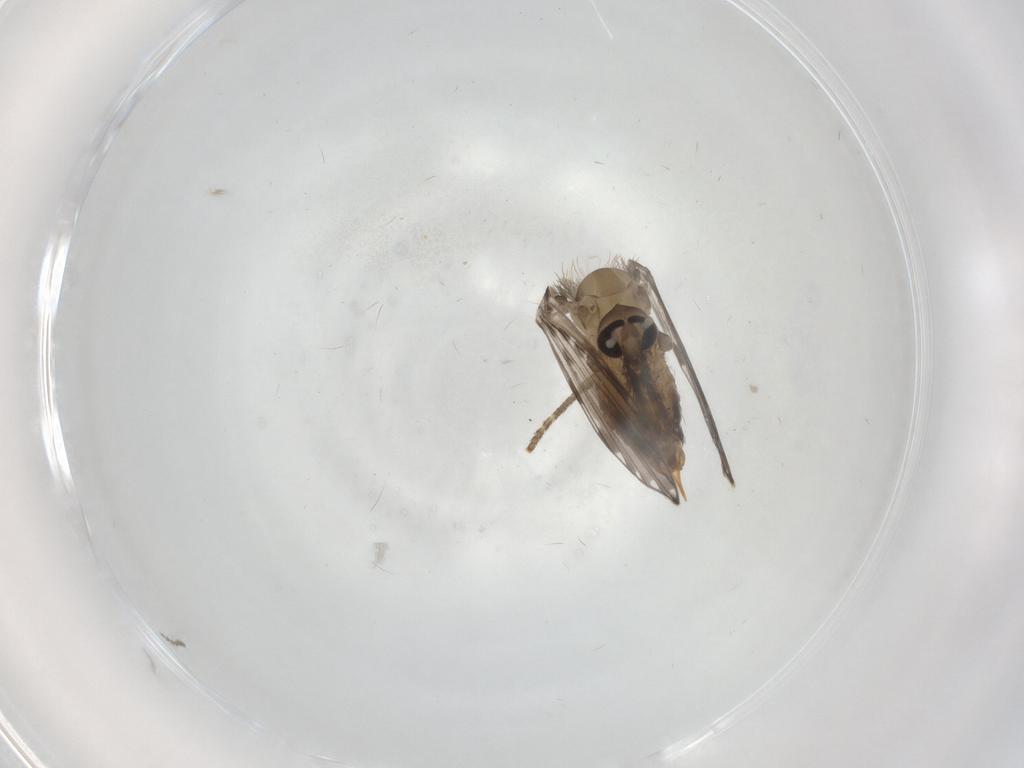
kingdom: Animalia
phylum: Arthropoda
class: Insecta
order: Diptera
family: Psychodidae
